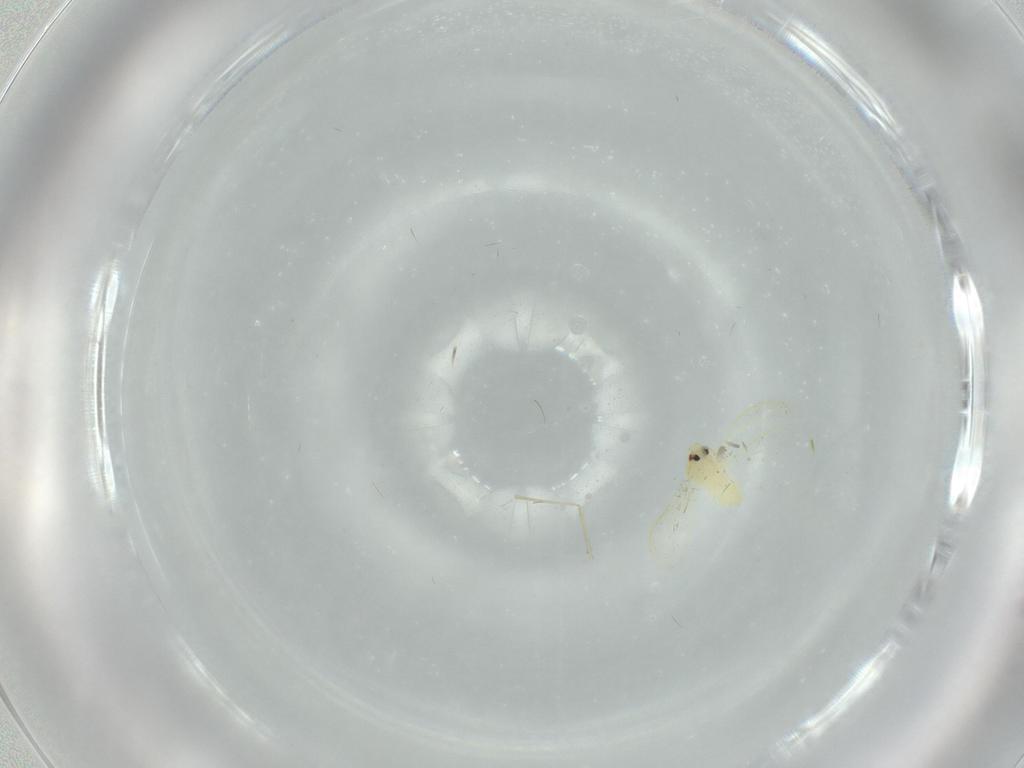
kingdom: Animalia
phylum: Arthropoda
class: Insecta
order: Hemiptera
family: Aleyrodidae
